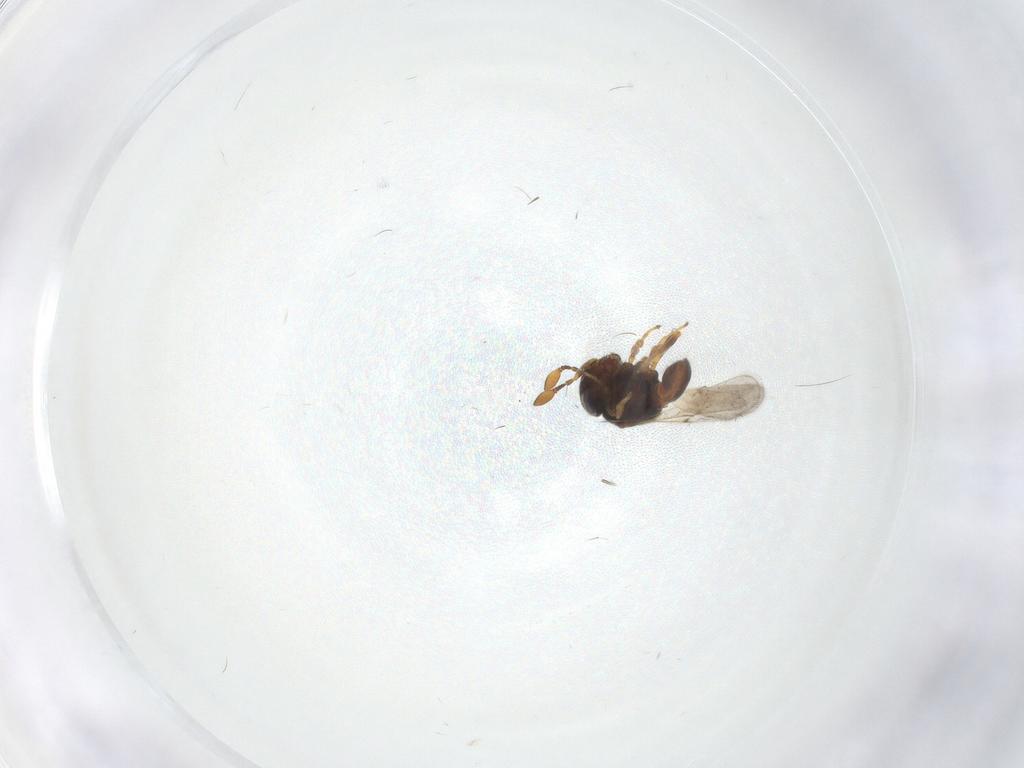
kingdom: Animalia
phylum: Arthropoda
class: Insecta
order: Hymenoptera
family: Scelionidae
